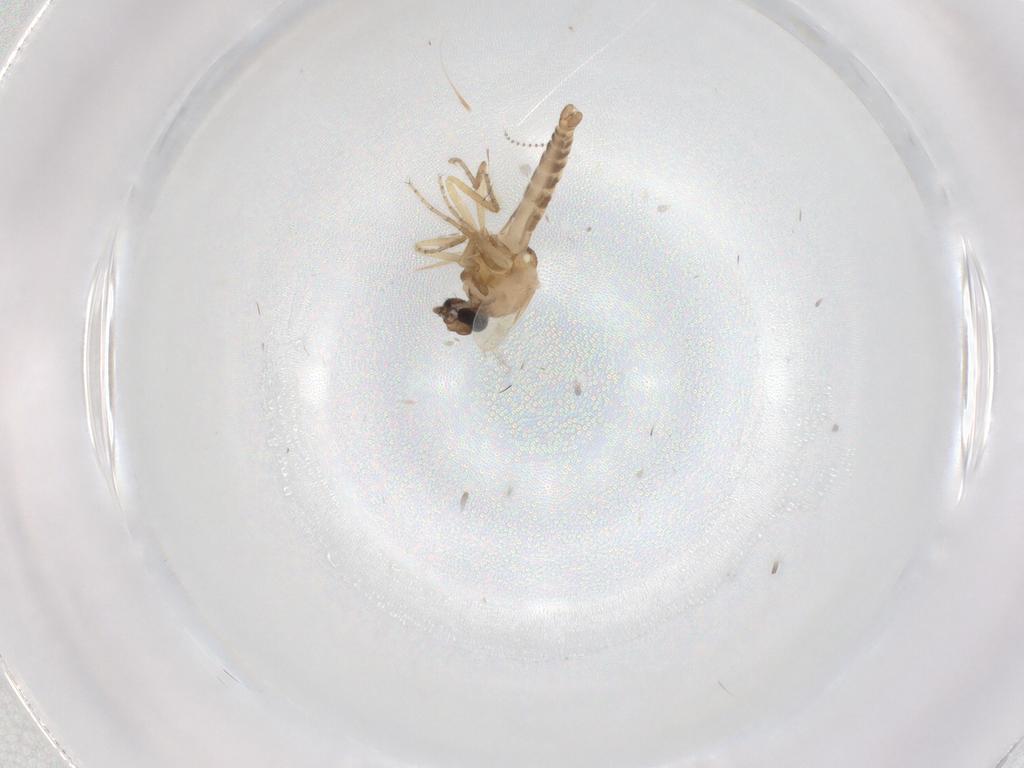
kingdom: Animalia
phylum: Arthropoda
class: Insecta
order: Diptera
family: Ceratopogonidae
